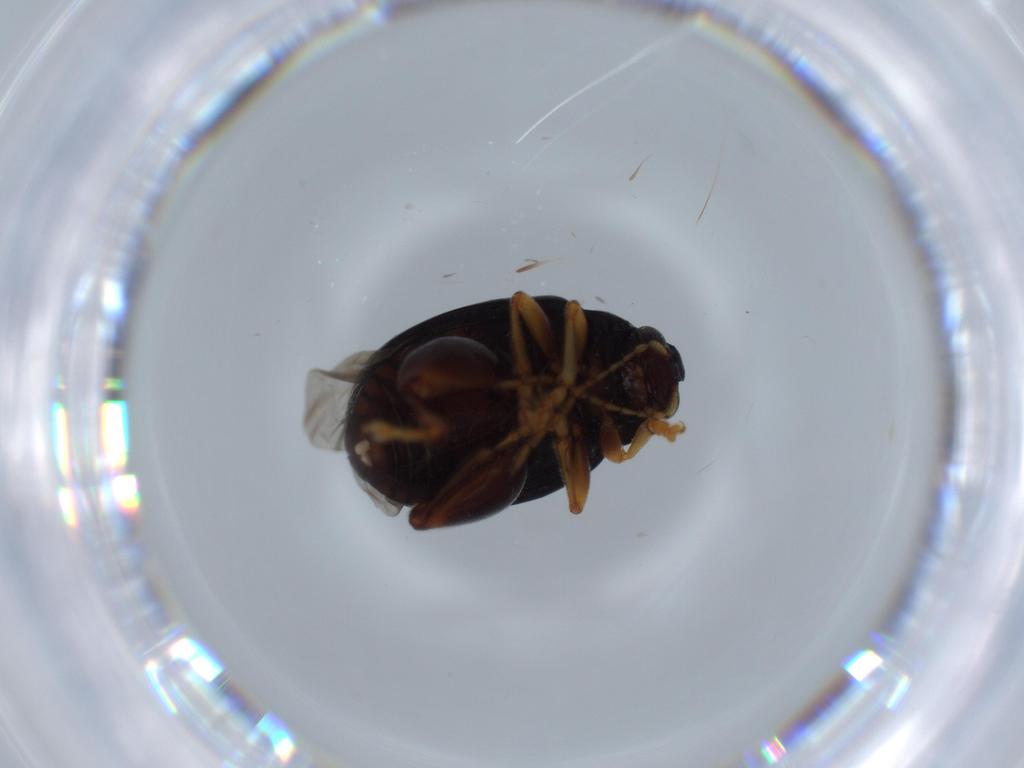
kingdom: Animalia
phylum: Arthropoda
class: Insecta
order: Coleoptera
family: Chrysomelidae
